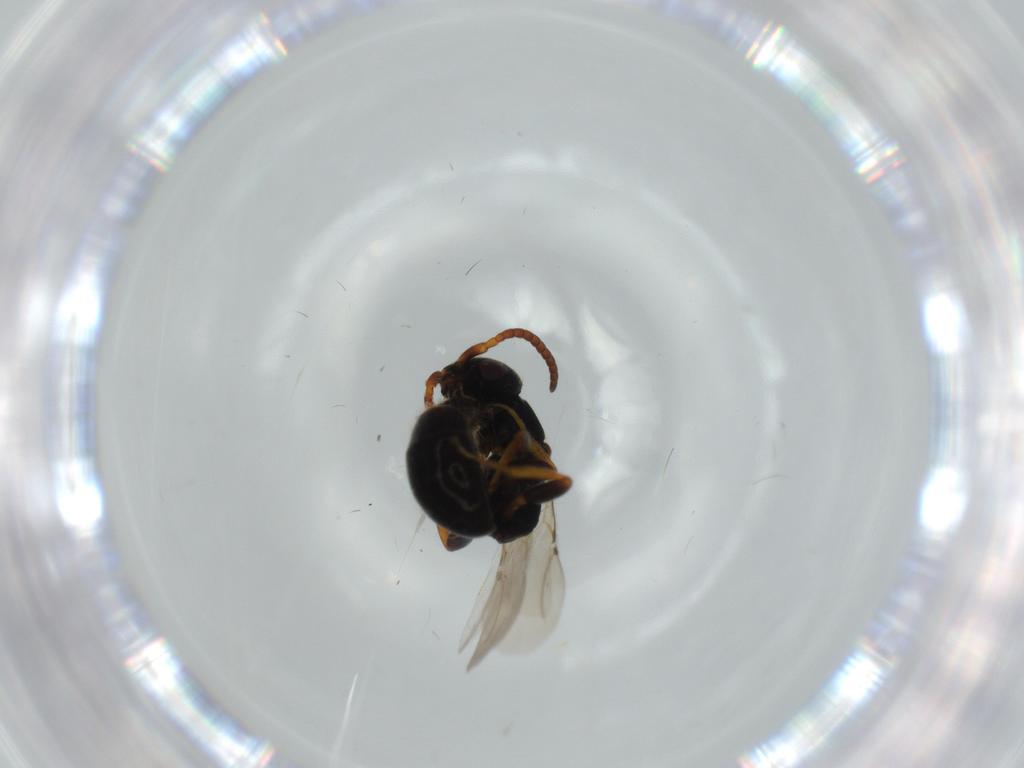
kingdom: Animalia
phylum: Arthropoda
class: Insecta
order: Hymenoptera
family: Bethylidae
